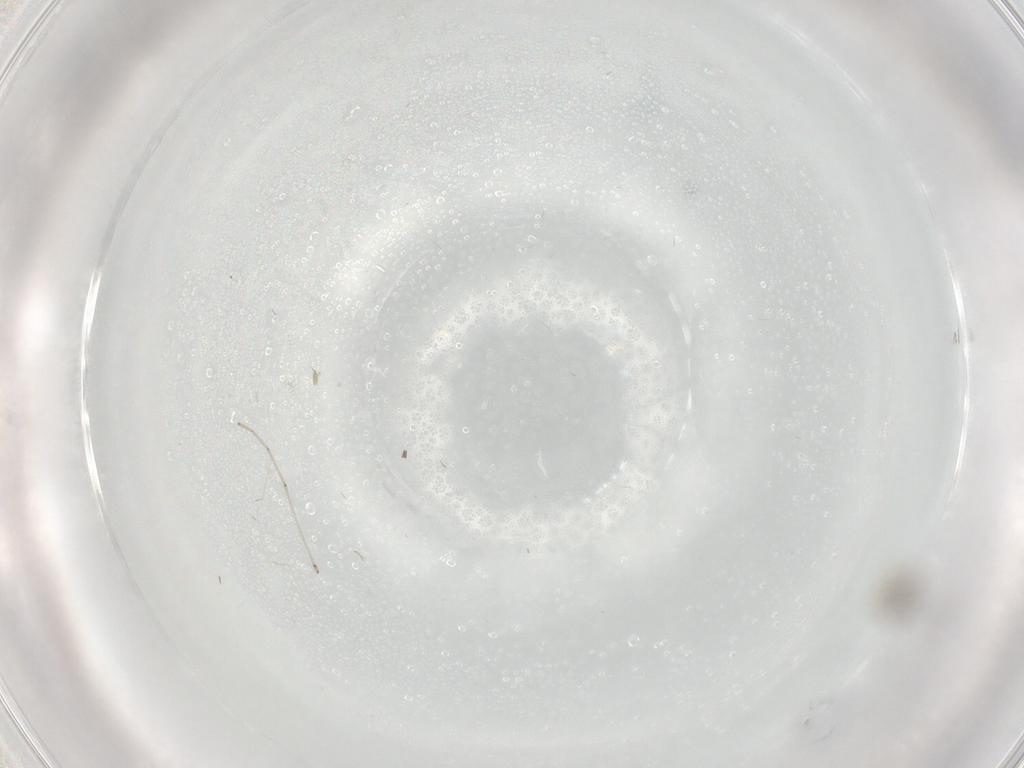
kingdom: Animalia
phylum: Arthropoda
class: Insecta
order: Diptera
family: Cecidomyiidae
